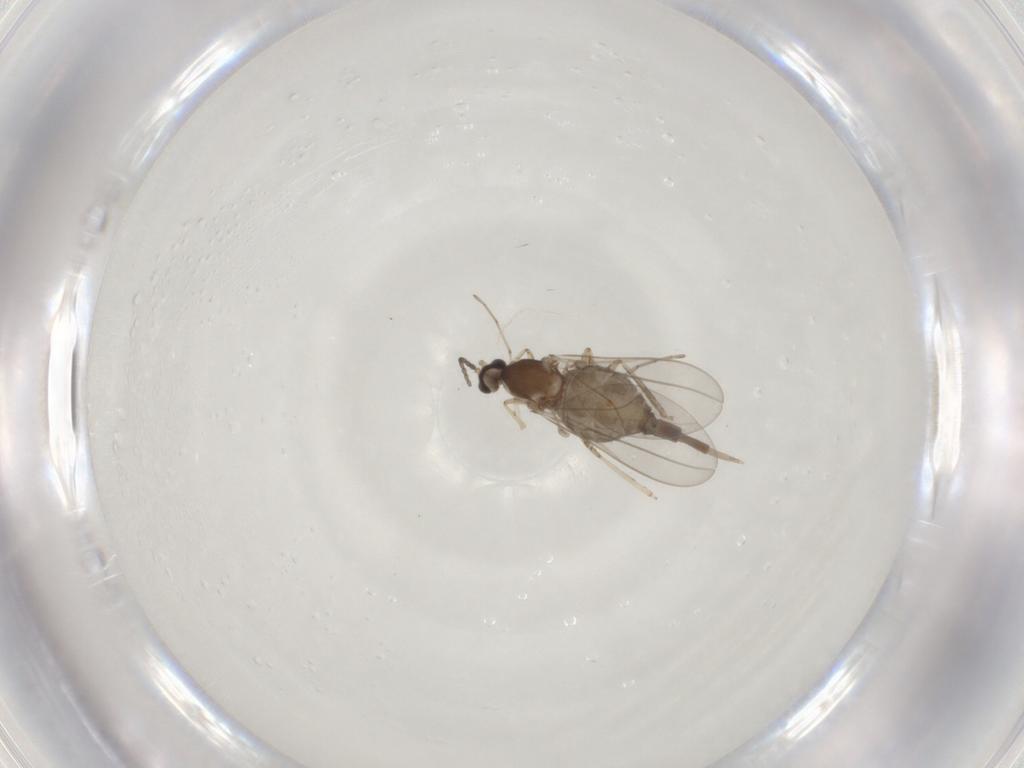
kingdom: Animalia
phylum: Arthropoda
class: Insecta
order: Diptera
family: Cecidomyiidae
